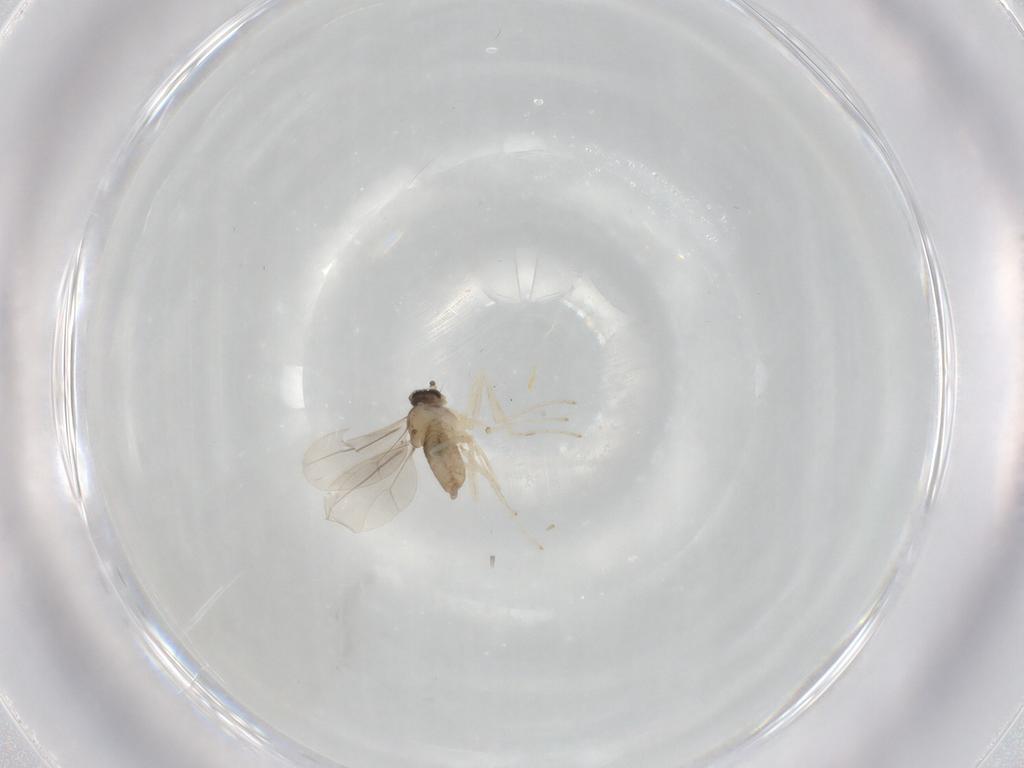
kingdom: Animalia
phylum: Arthropoda
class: Insecta
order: Diptera
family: Cecidomyiidae
